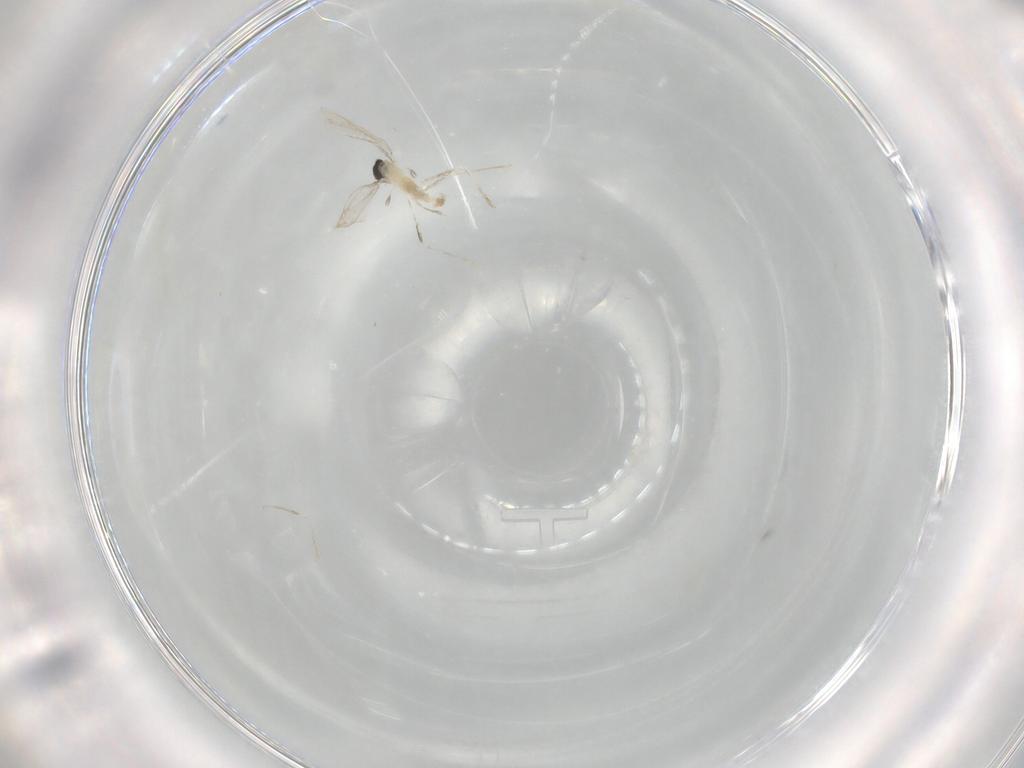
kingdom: Animalia
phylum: Arthropoda
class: Insecta
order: Diptera
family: Cecidomyiidae
